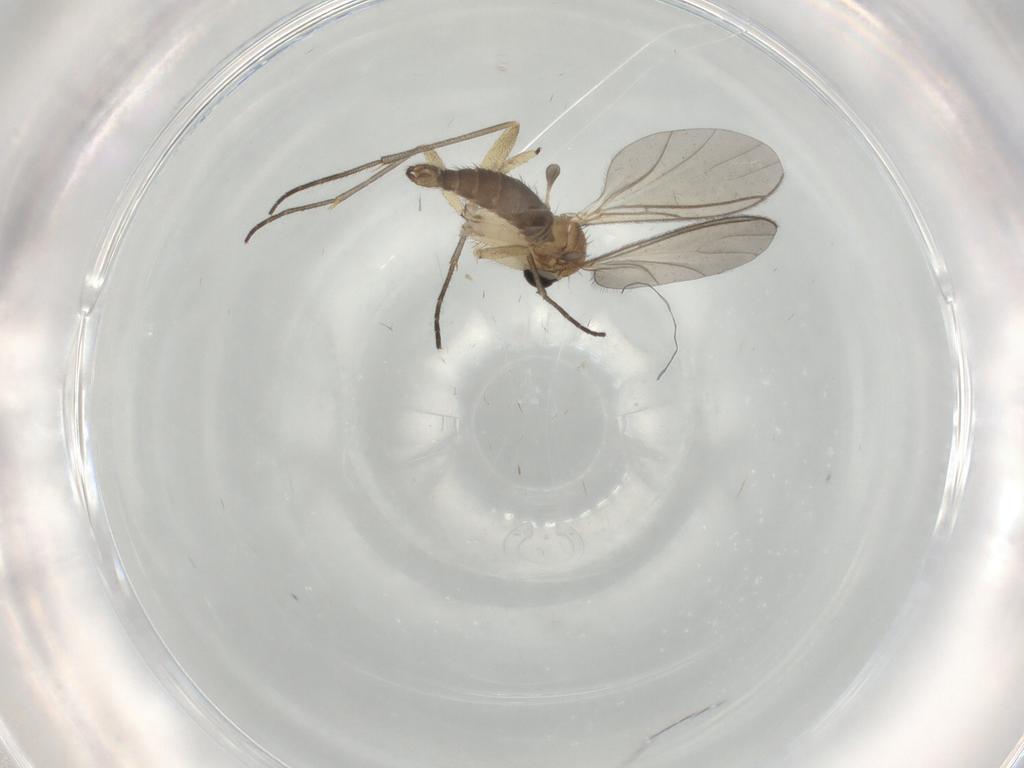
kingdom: Animalia
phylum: Arthropoda
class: Insecta
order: Diptera
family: Sciaridae
